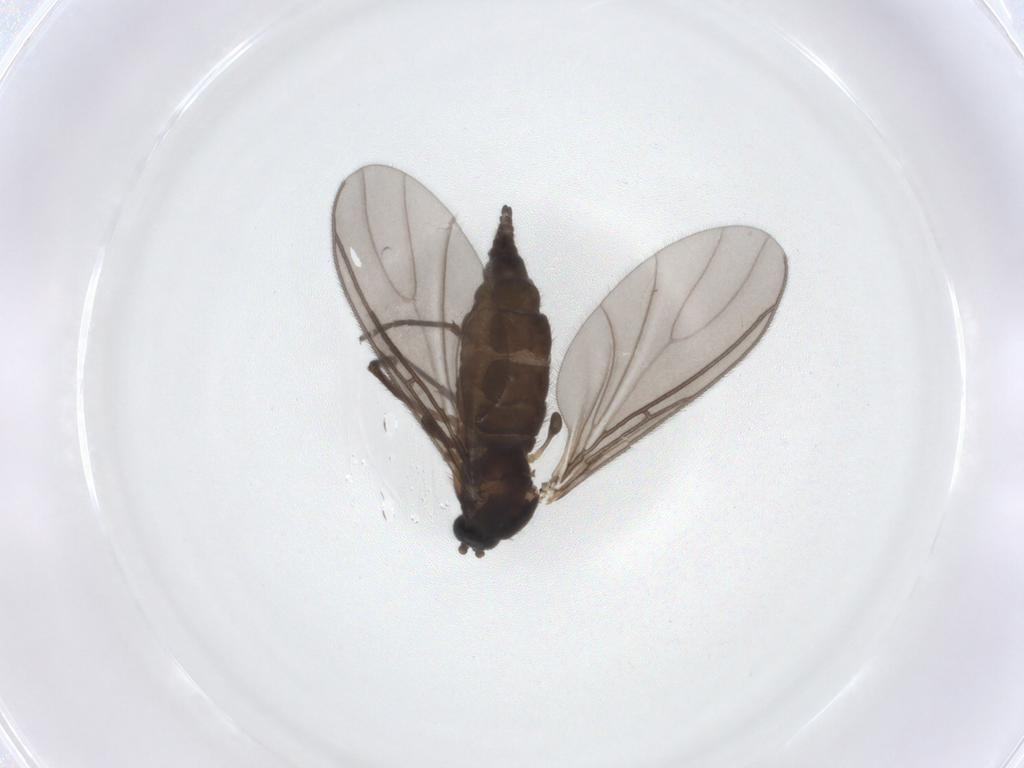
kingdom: Animalia
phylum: Arthropoda
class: Insecta
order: Diptera
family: Sciaridae
